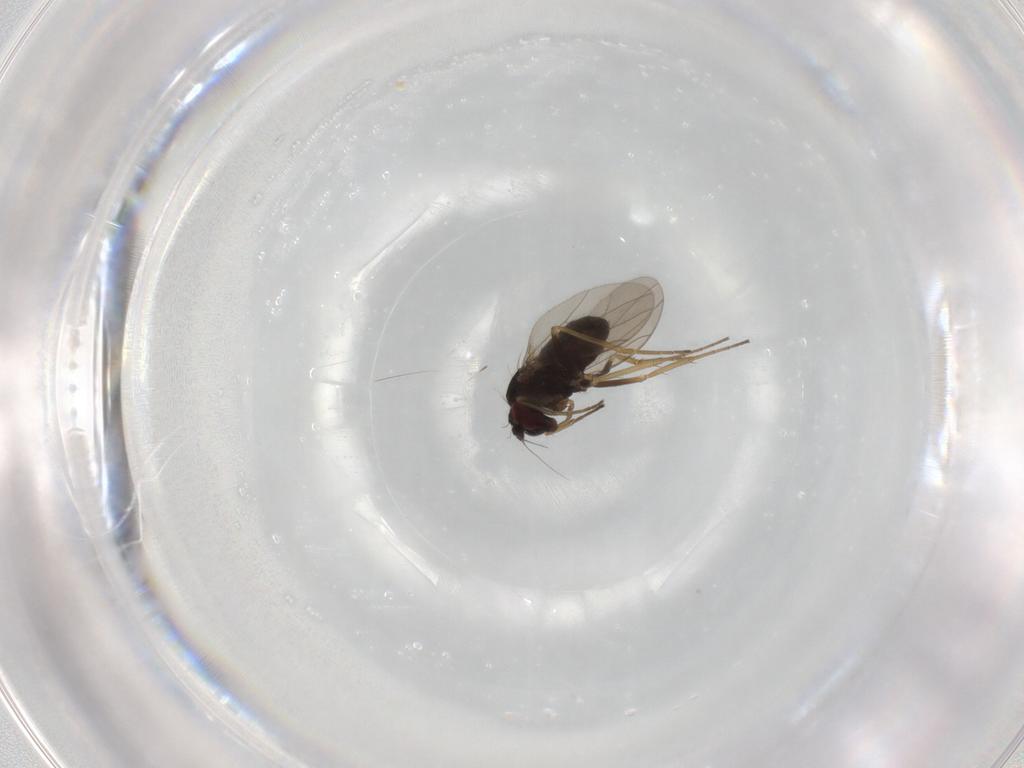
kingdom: Animalia
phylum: Arthropoda
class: Insecta
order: Diptera
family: Dolichopodidae
